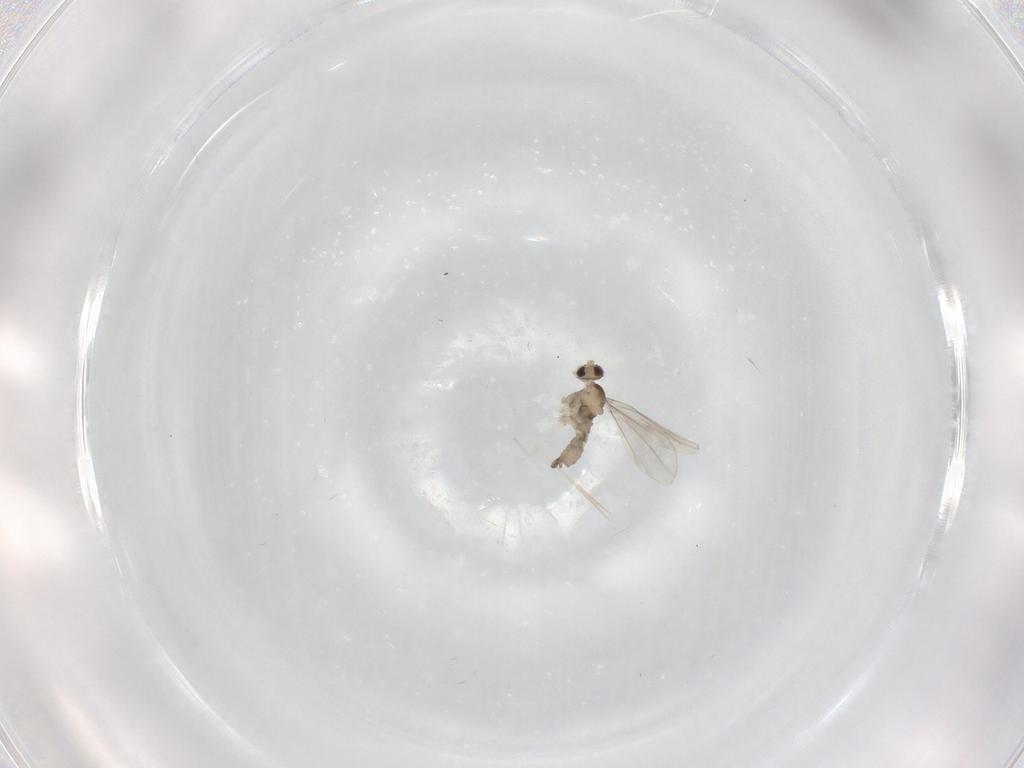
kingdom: Animalia
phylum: Arthropoda
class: Insecta
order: Diptera
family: Cecidomyiidae
